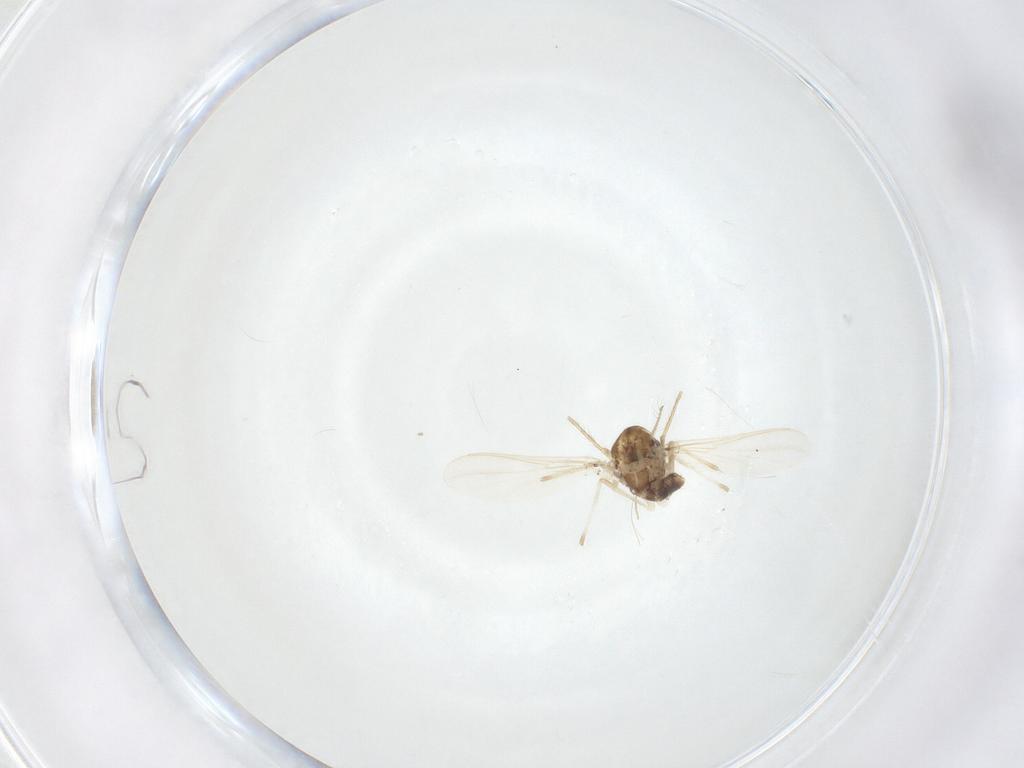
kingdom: Animalia
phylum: Arthropoda
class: Insecta
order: Diptera
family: Chironomidae
